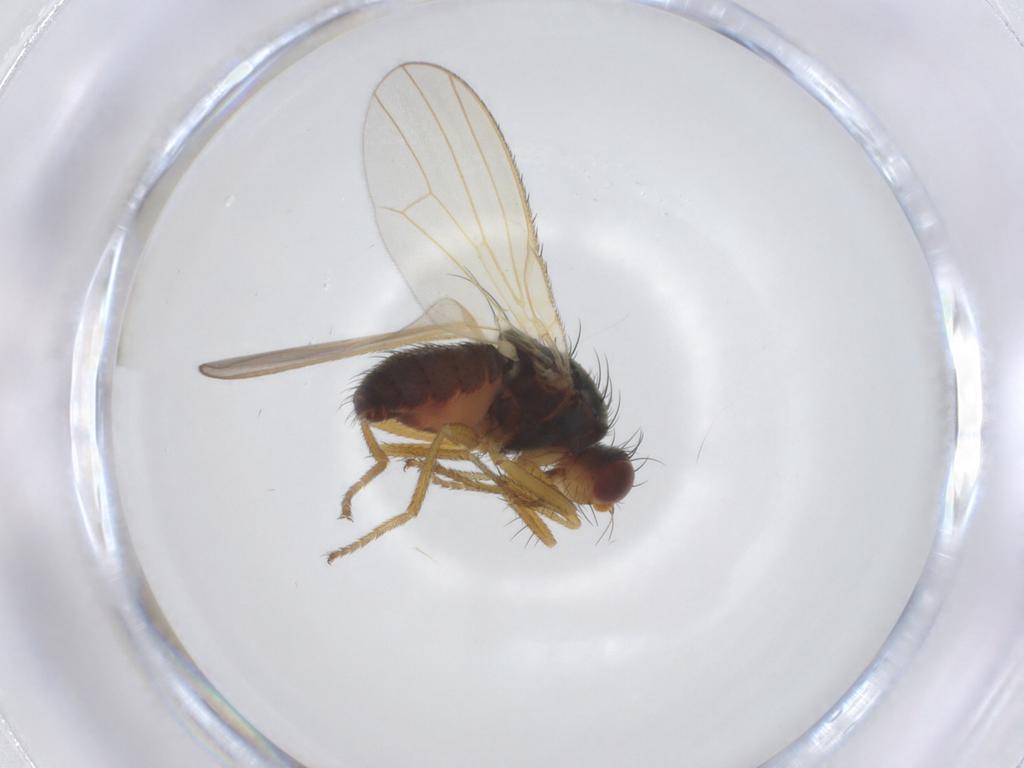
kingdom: Animalia
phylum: Arthropoda
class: Insecta
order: Diptera
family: Heleomyzidae
